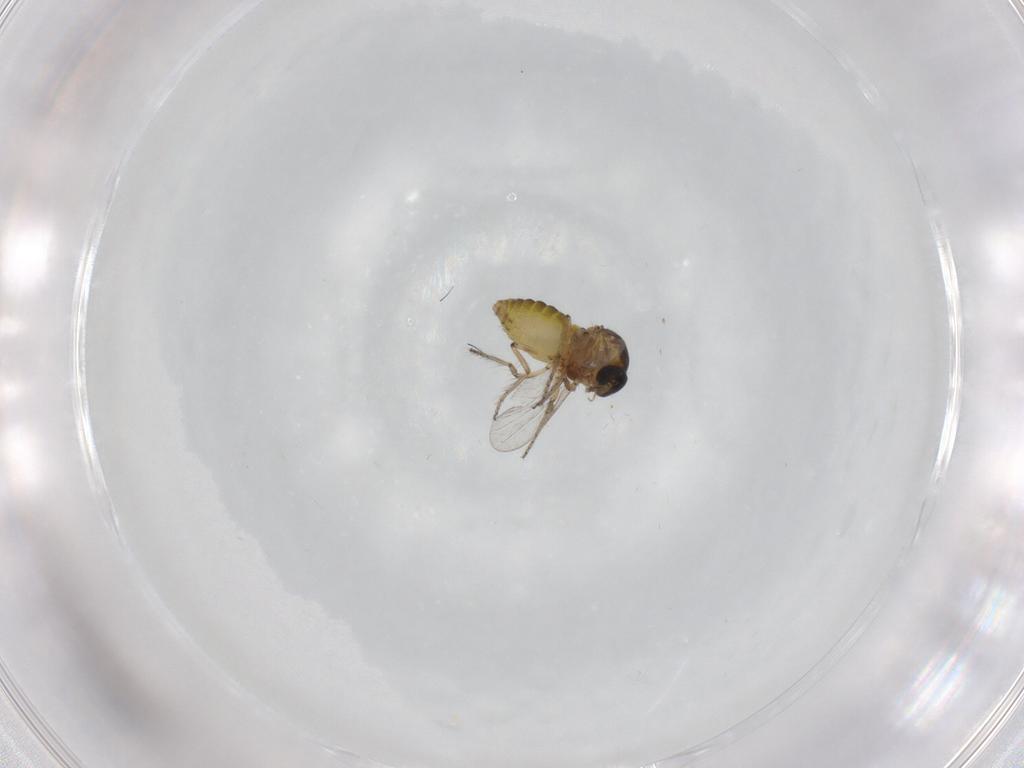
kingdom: Animalia
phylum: Arthropoda
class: Insecta
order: Diptera
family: Ceratopogonidae
